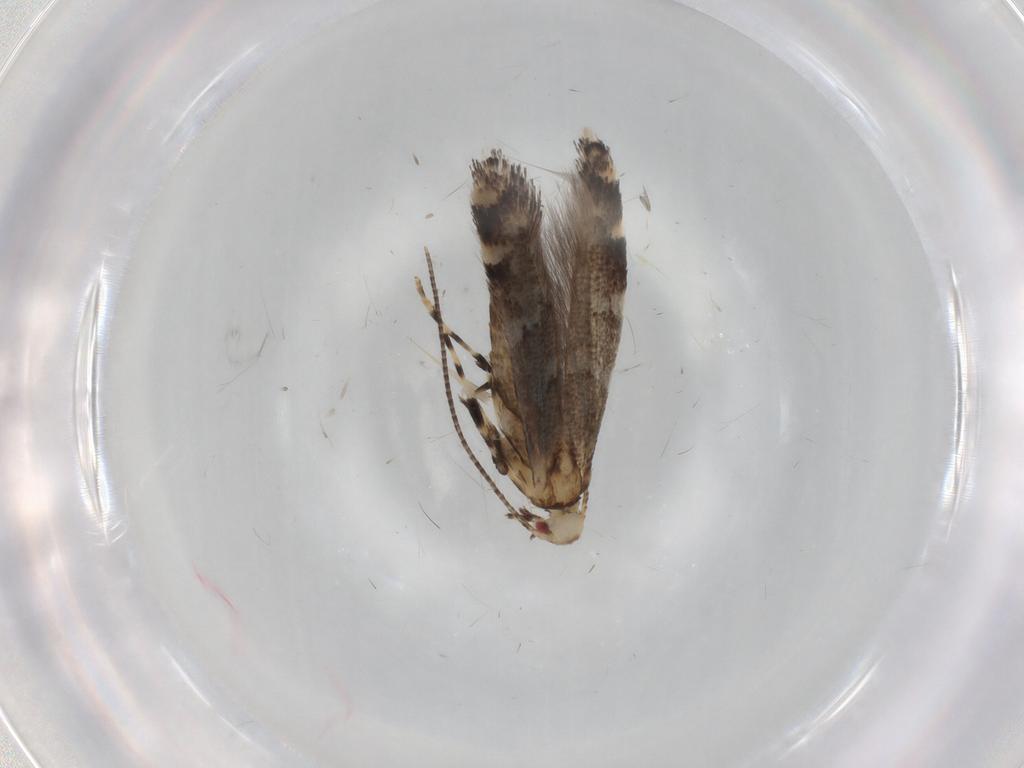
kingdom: Animalia
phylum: Arthropoda
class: Insecta
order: Lepidoptera
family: Gracillariidae
